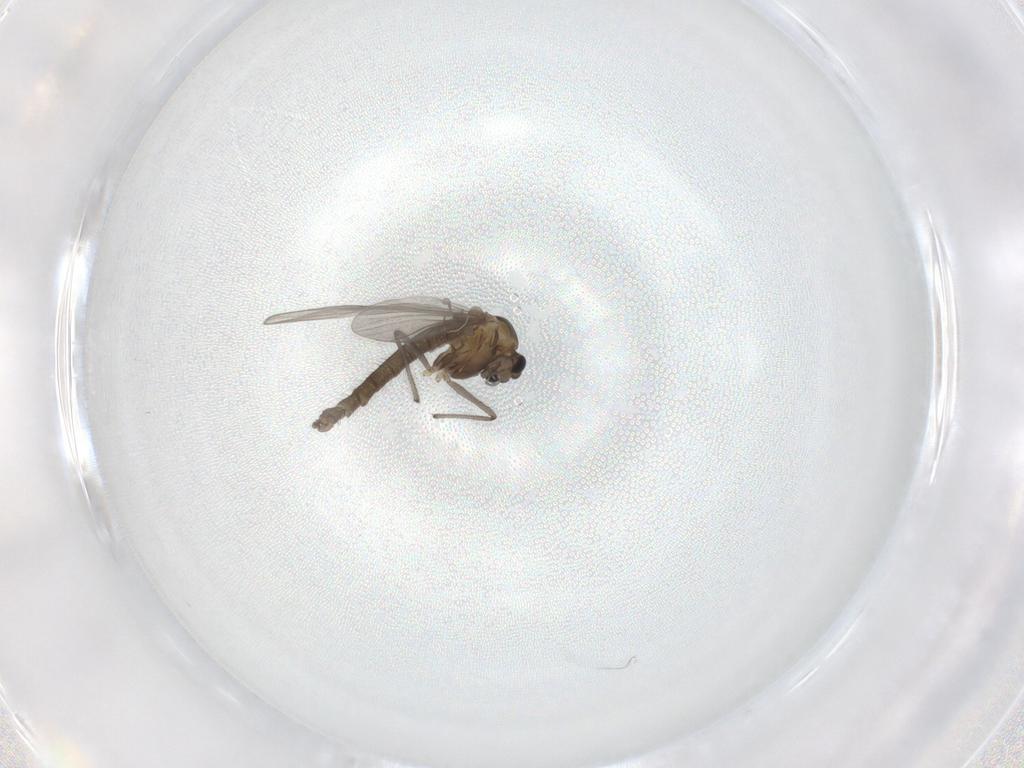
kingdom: Animalia
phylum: Arthropoda
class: Insecta
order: Diptera
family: Chironomidae
